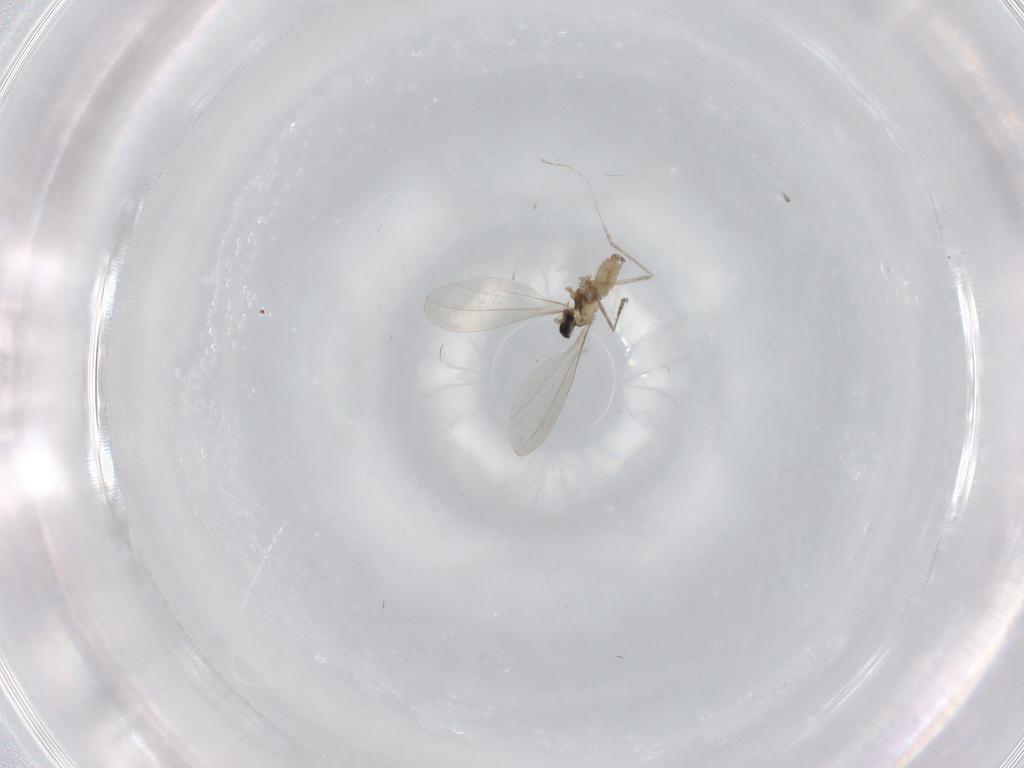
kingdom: Animalia
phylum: Arthropoda
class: Insecta
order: Diptera
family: Cecidomyiidae
